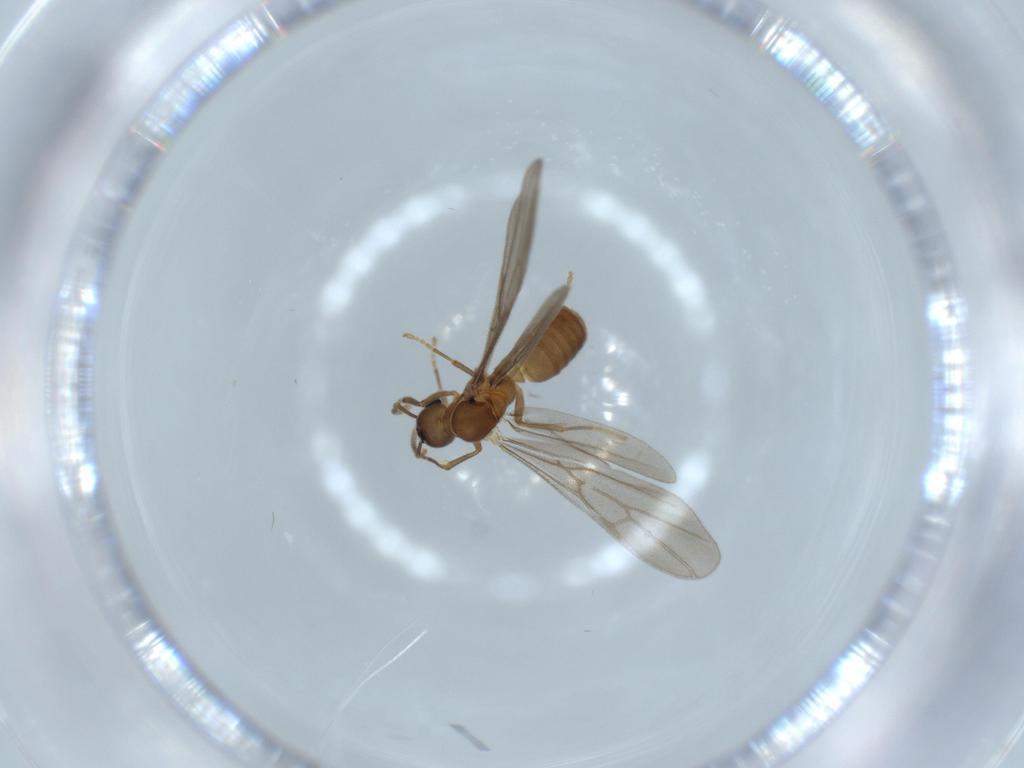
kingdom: Animalia
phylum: Arthropoda
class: Insecta
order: Hymenoptera
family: Formicidae
